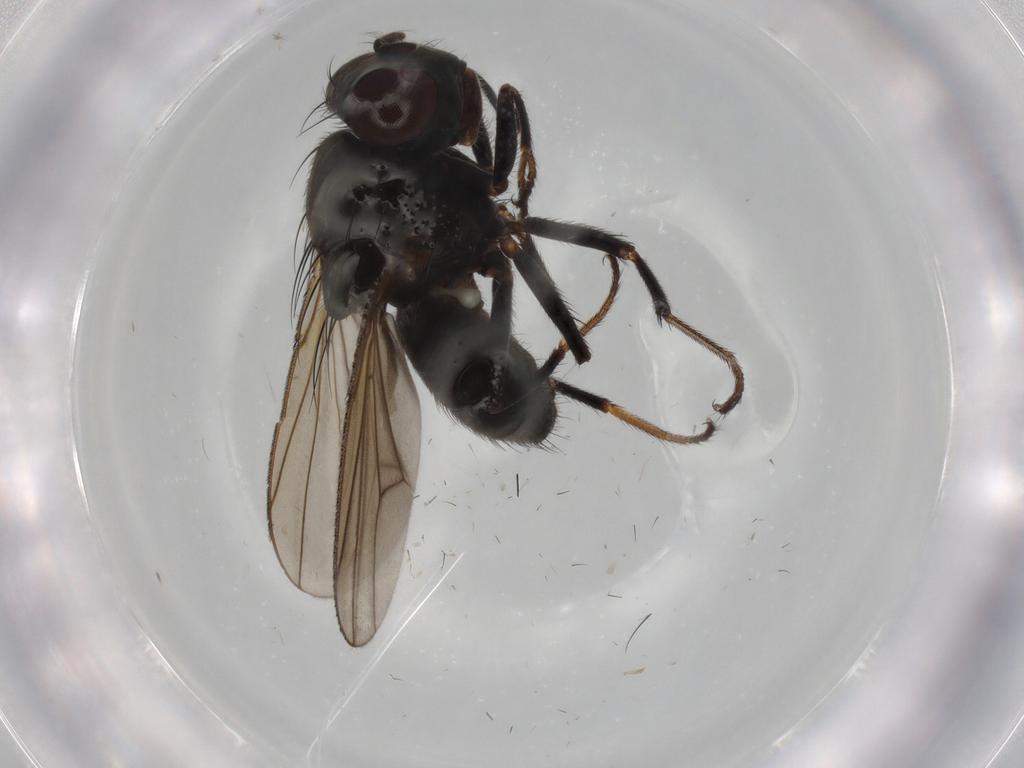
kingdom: Animalia
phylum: Arthropoda
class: Insecta
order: Diptera
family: Ephydridae
